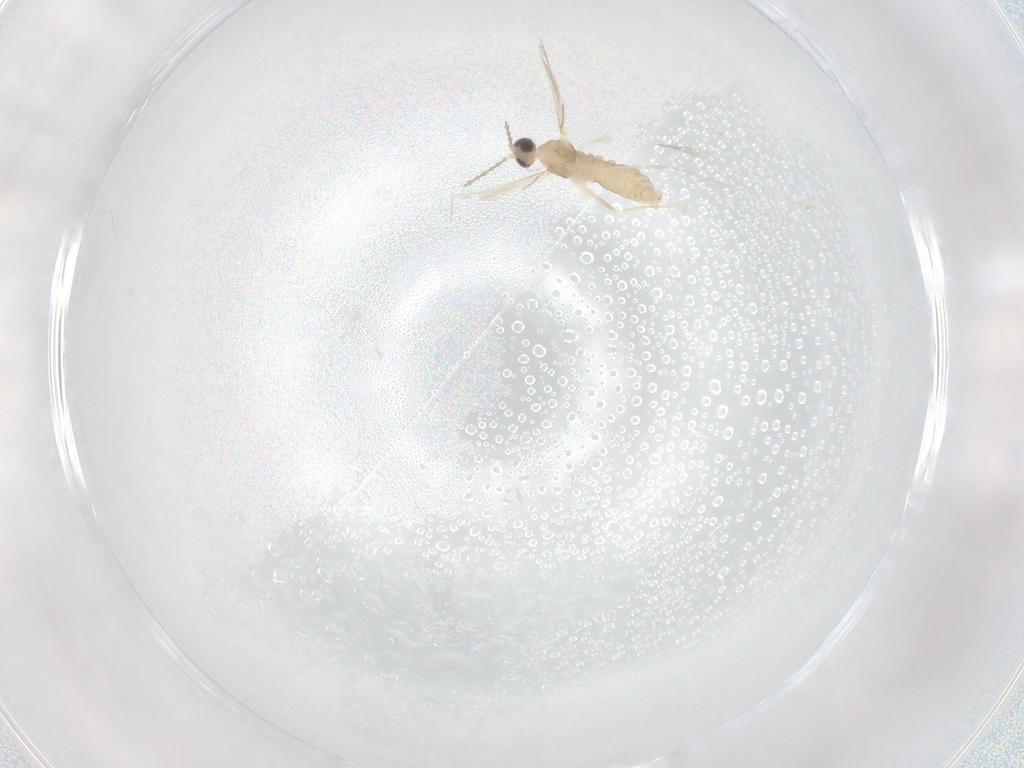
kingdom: Animalia
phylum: Arthropoda
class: Insecta
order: Diptera
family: Cecidomyiidae
